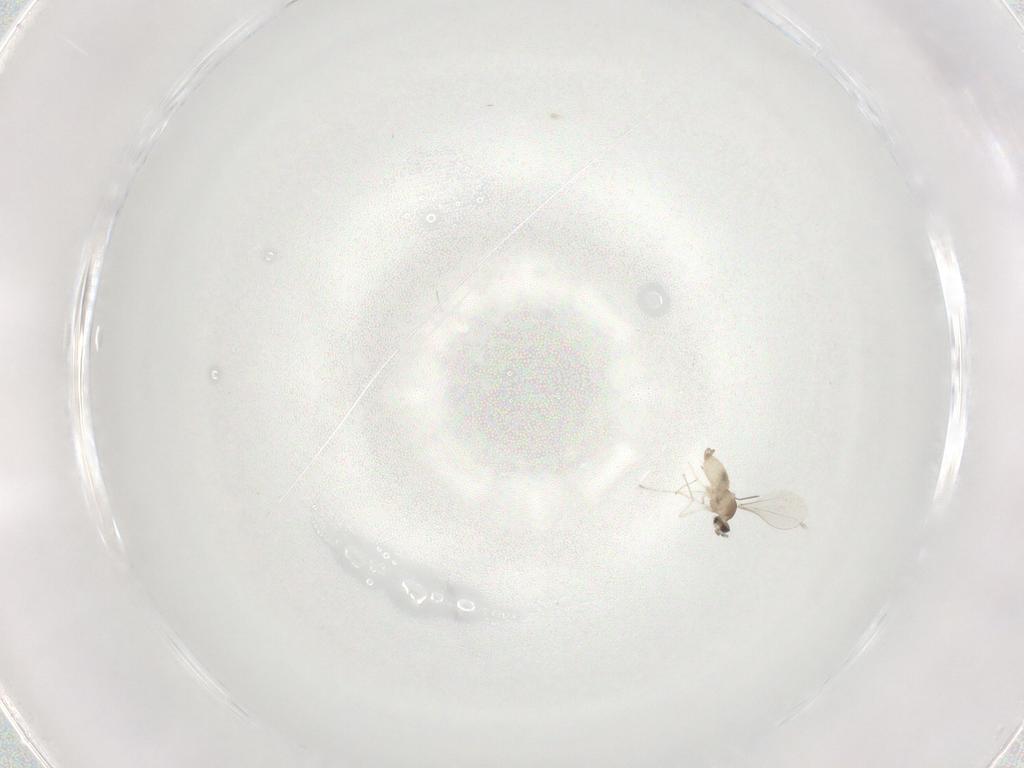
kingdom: Animalia
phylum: Arthropoda
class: Insecta
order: Diptera
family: Cecidomyiidae
